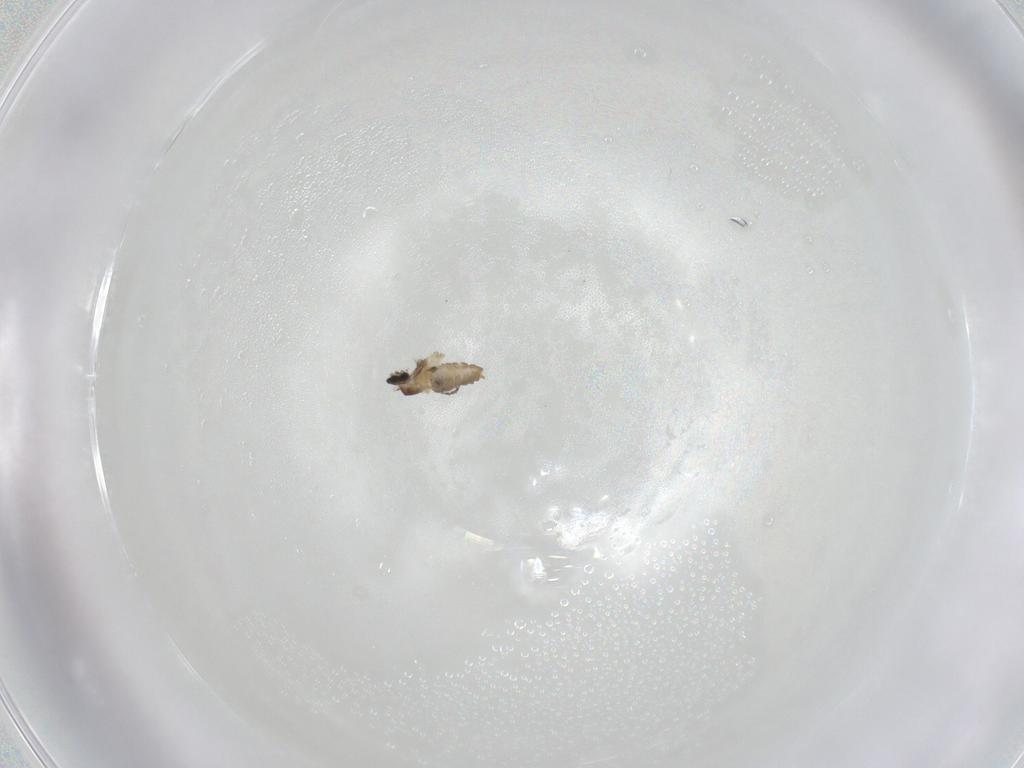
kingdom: Animalia
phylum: Arthropoda
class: Insecta
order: Diptera
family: Cecidomyiidae
